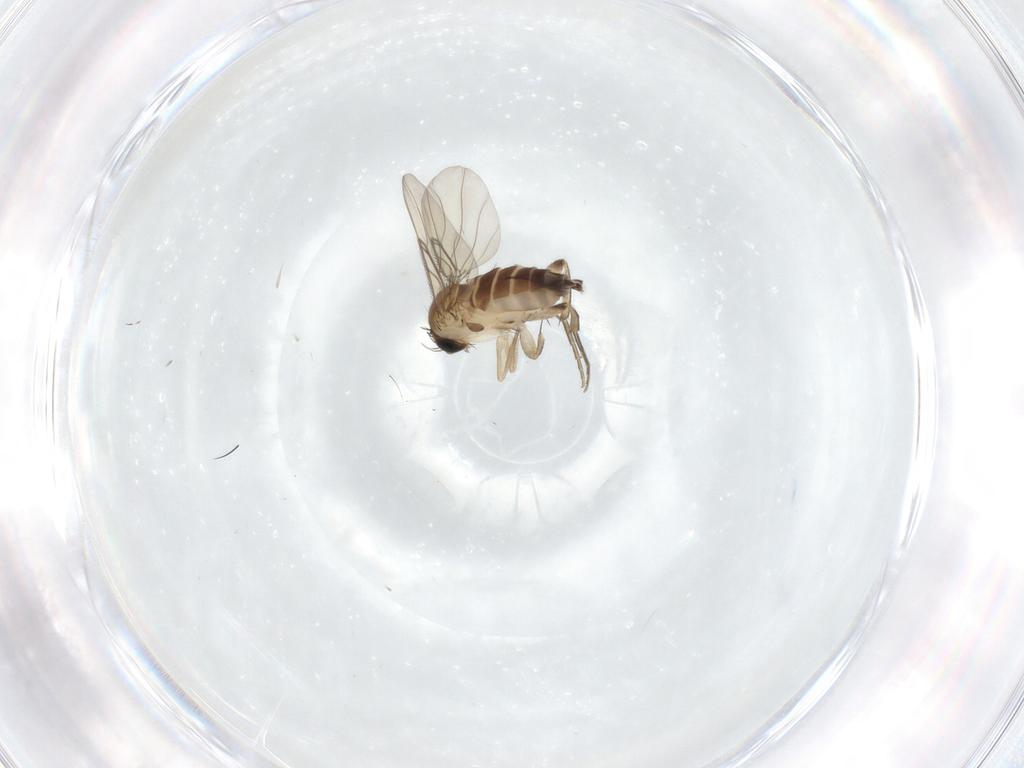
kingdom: Animalia
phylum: Arthropoda
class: Insecta
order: Diptera
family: Phoridae
